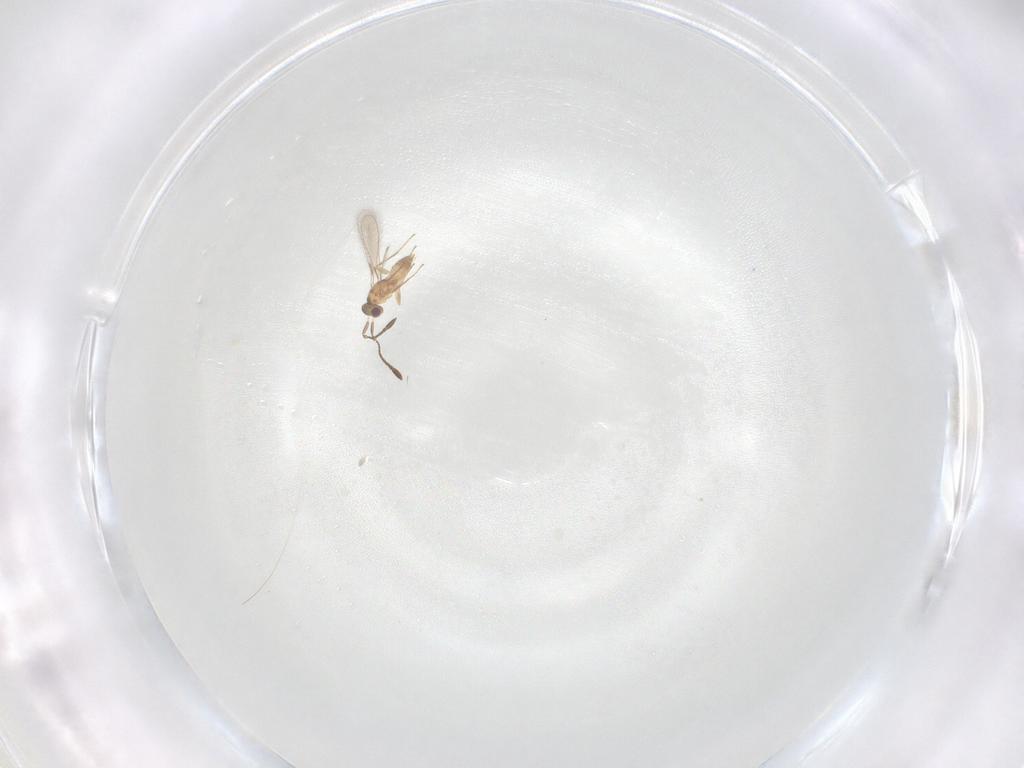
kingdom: Animalia
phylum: Arthropoda
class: Insecta
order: Hymenoptera
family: Mymaridae
